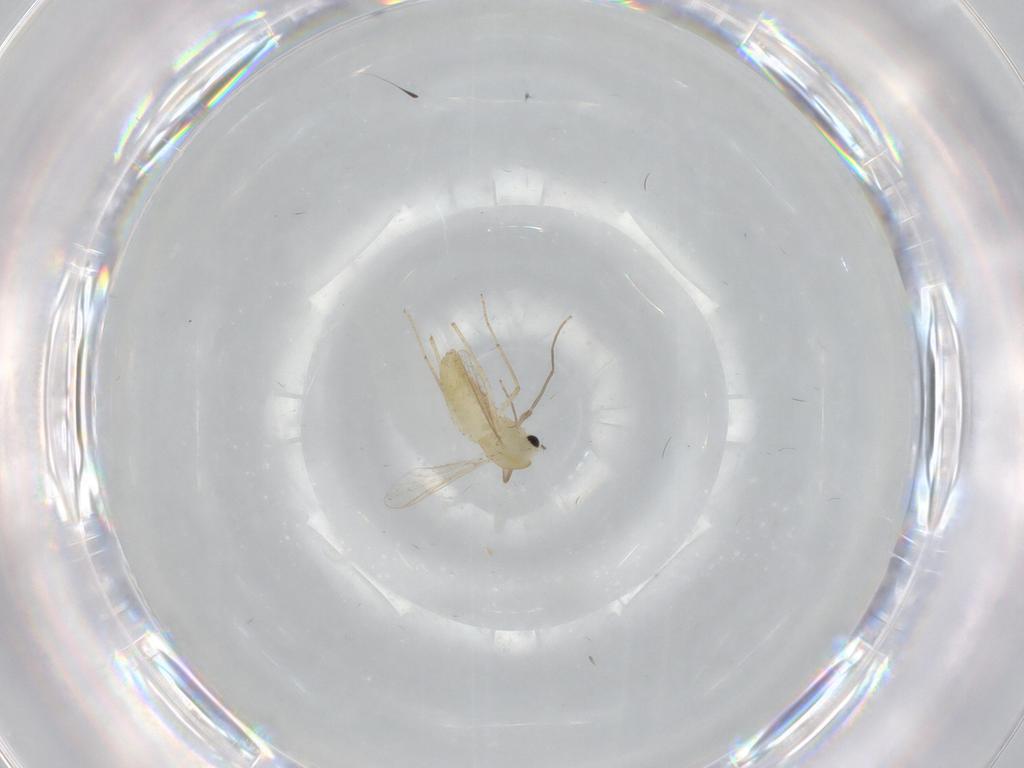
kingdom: Animalia
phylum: Arthropoda
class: Insecta
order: Diptera
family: Chironomidae
